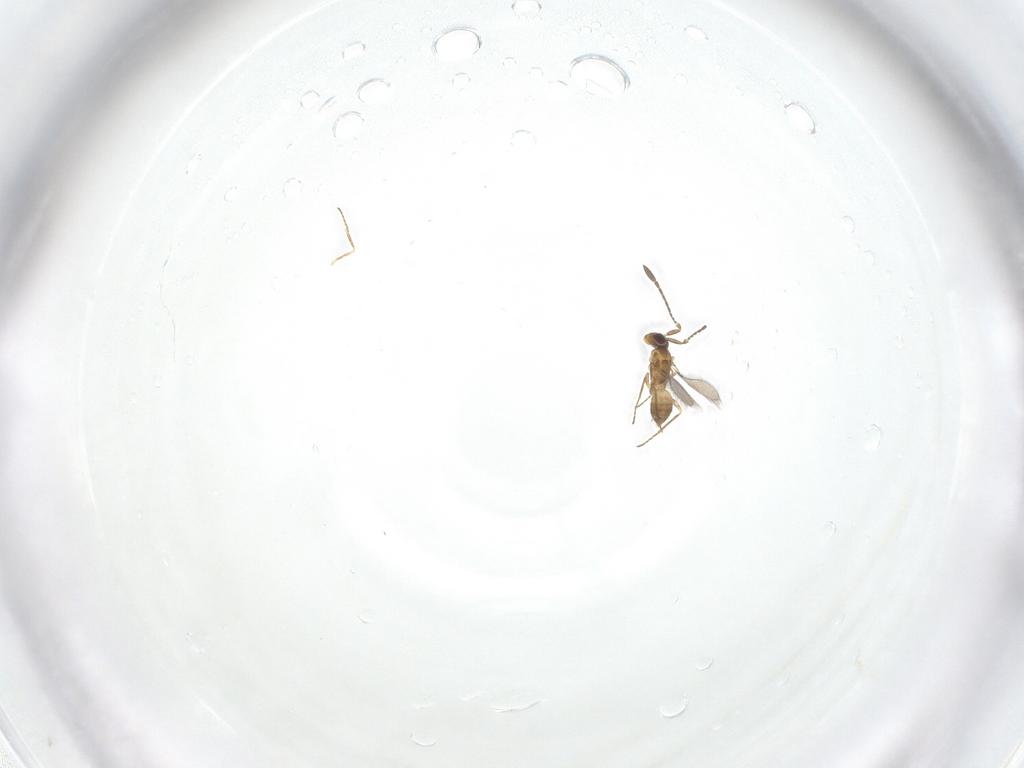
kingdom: Animalia
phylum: Arthropoda
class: Insecta
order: Hymenoptera
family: Mymaridae
